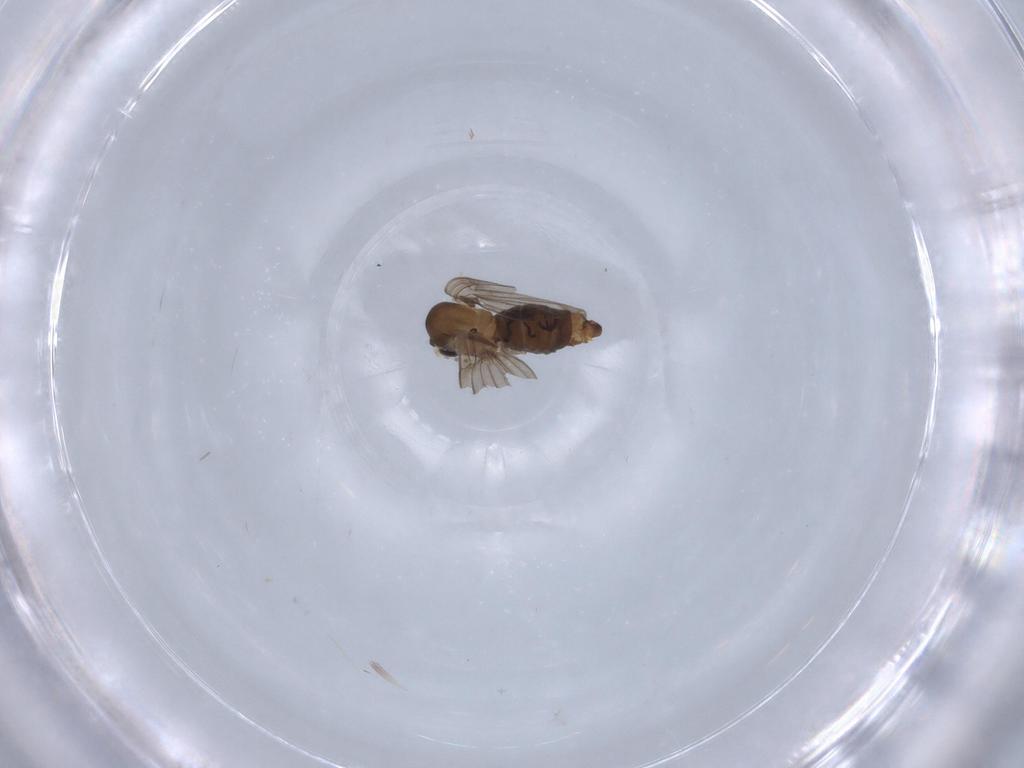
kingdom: Animalia
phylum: Arthropoda
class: Insecta
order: Diptera
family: Psychodidae
